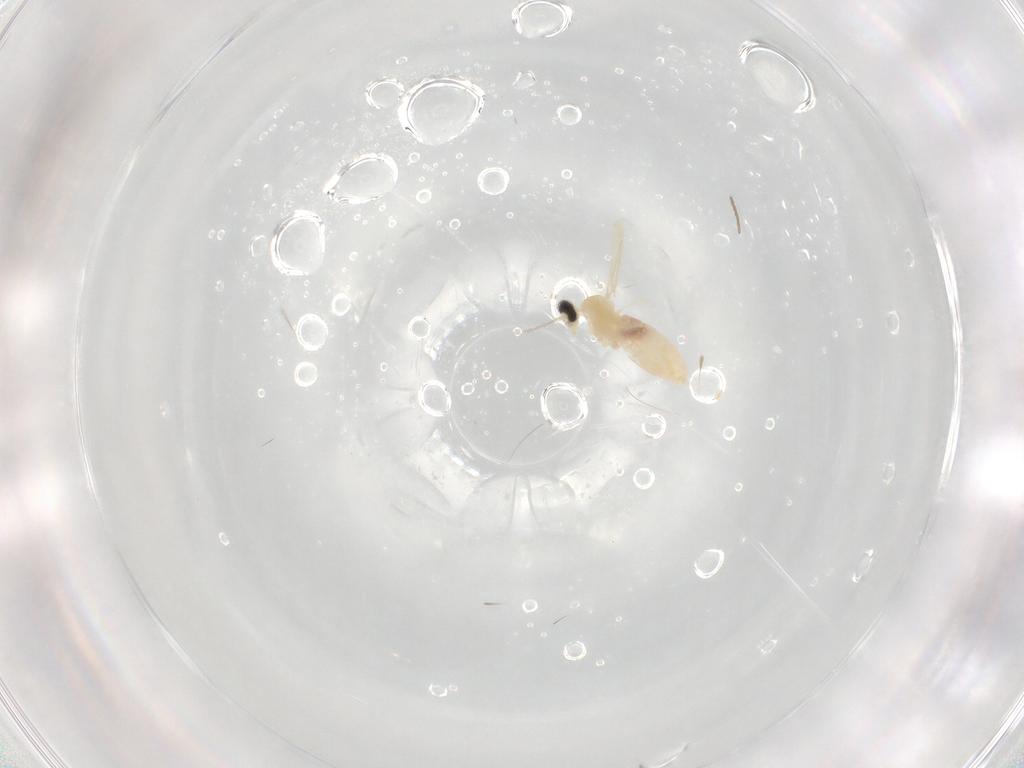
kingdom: Animalia
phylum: Arthropoda
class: Insecta
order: Diptera
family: Cecidomyiidae
